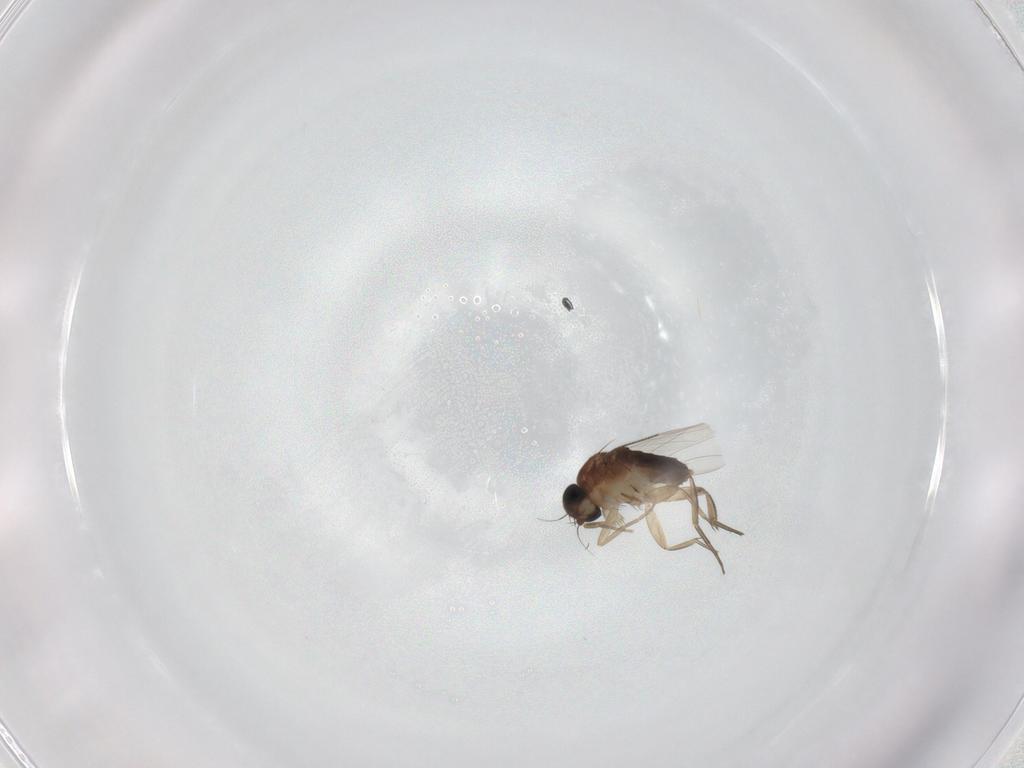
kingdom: Animalia
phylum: Arthropoda
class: Insecta
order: Diptera
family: Phoridae
